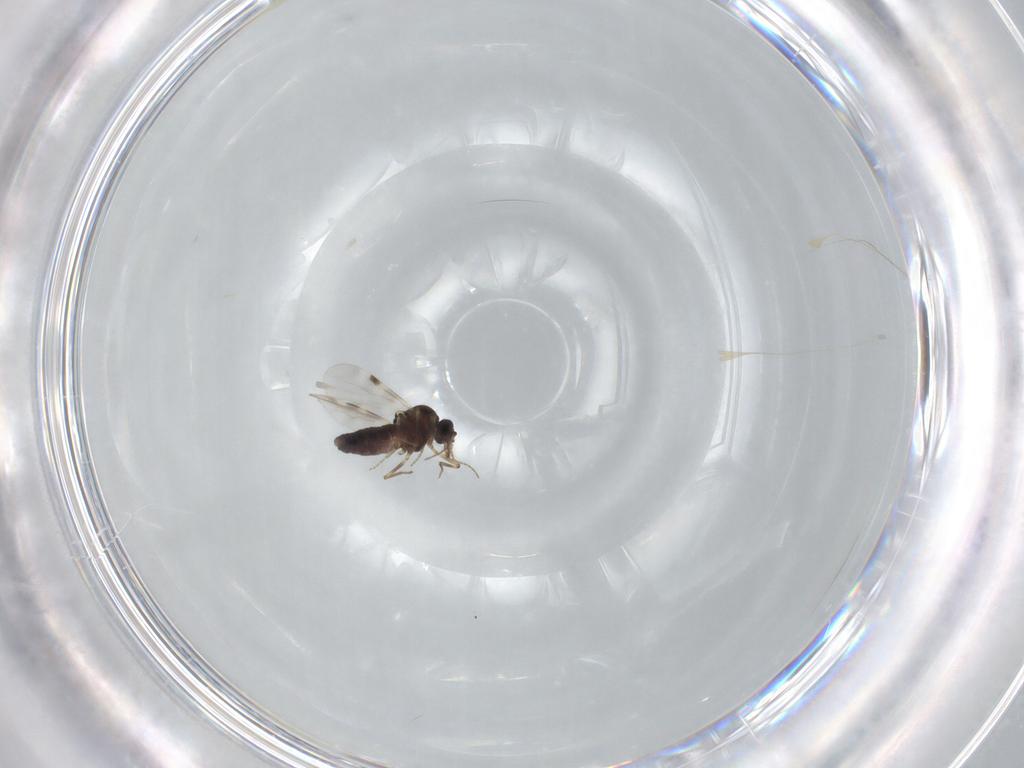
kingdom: Animalia
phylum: Arthropoda
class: Insecta
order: Diptera
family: Sciaridae
